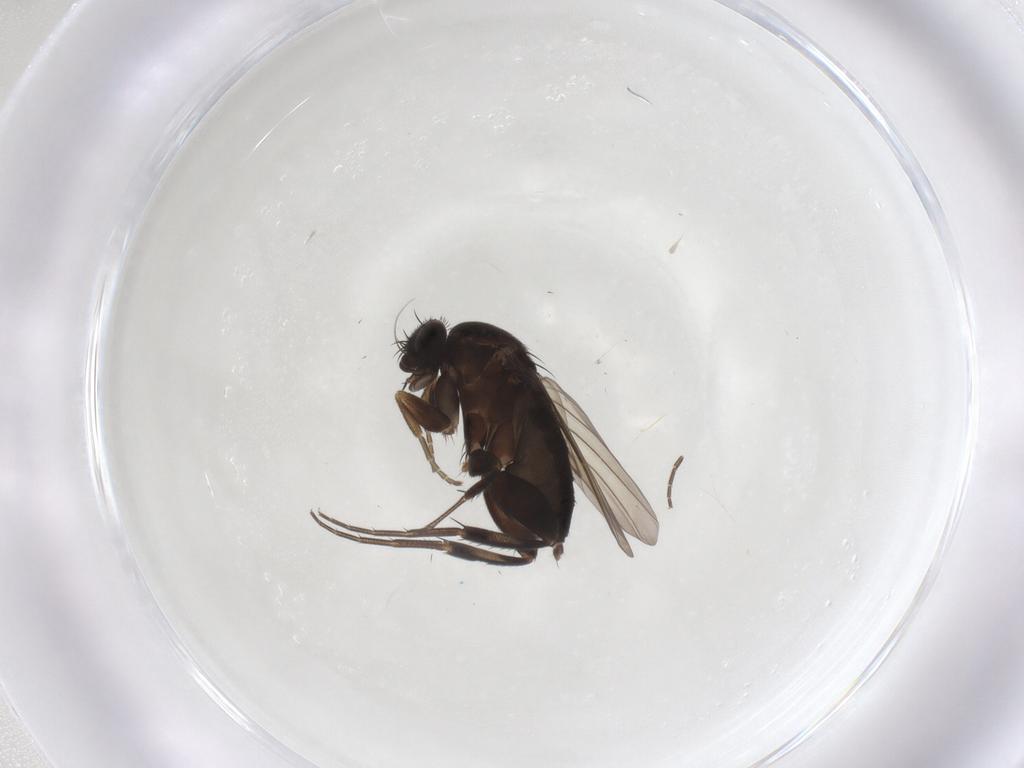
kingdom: Animalia
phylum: Arthropoda
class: Insecta
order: Diptera
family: Phoridae
